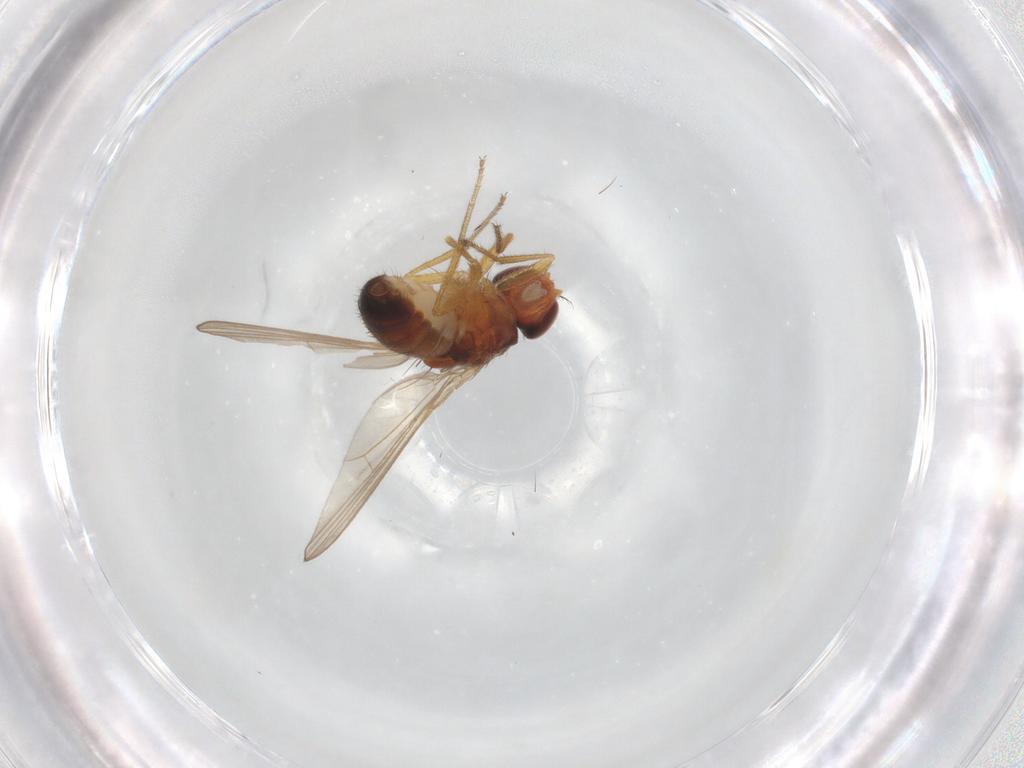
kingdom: Animalia
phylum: Arthropoda
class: Insecta
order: Diptera
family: Drosophilidae
